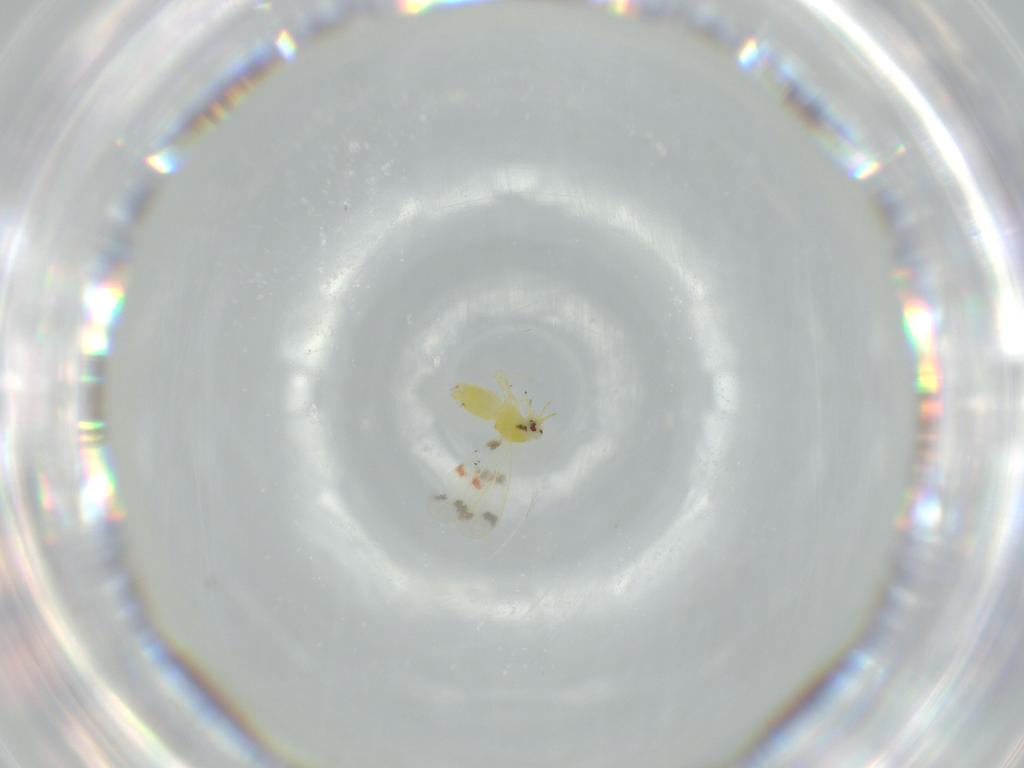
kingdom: Animalia
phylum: Arthropoda
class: Insecta
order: Hemiptera
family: Aleyrodidae
